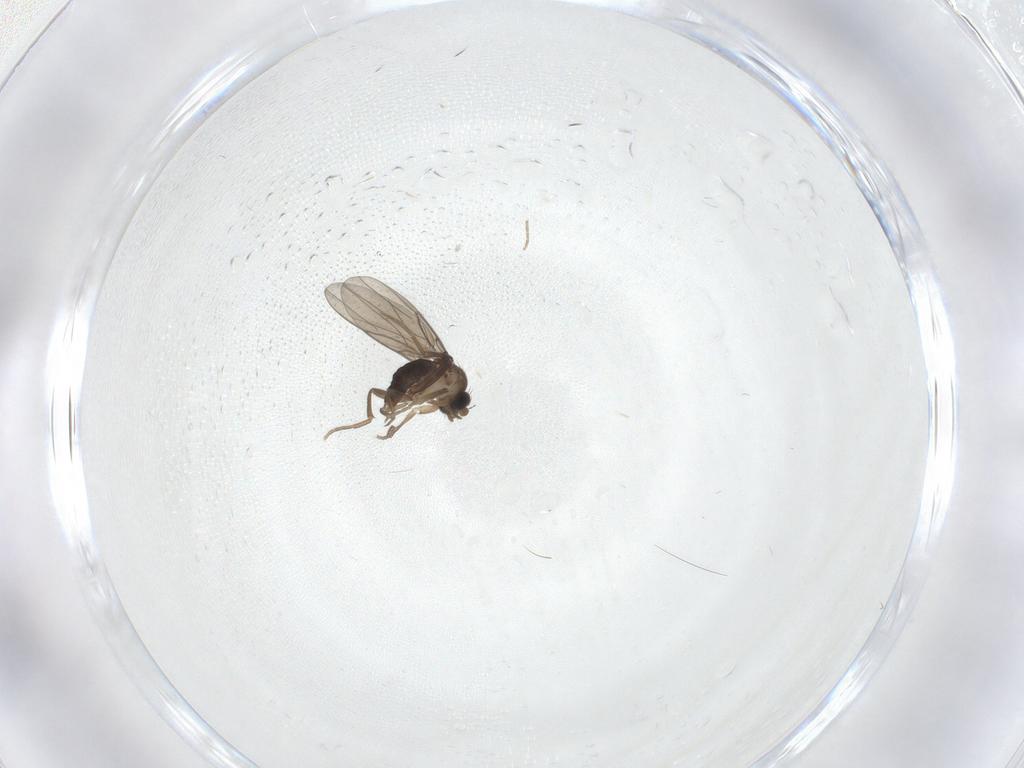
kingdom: Animalia
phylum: Arthropoda
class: Insecta
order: Diptera
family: Phoridae
